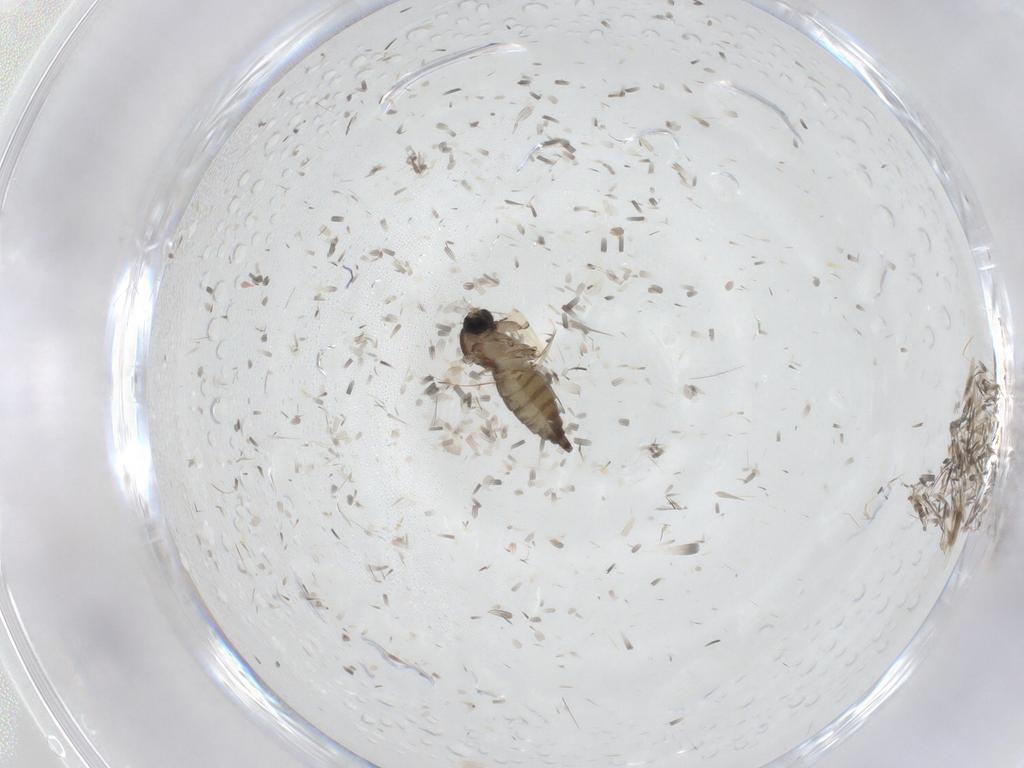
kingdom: Animalia
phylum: Arthropoda
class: Insecta
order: Diptera
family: Sciaridae
